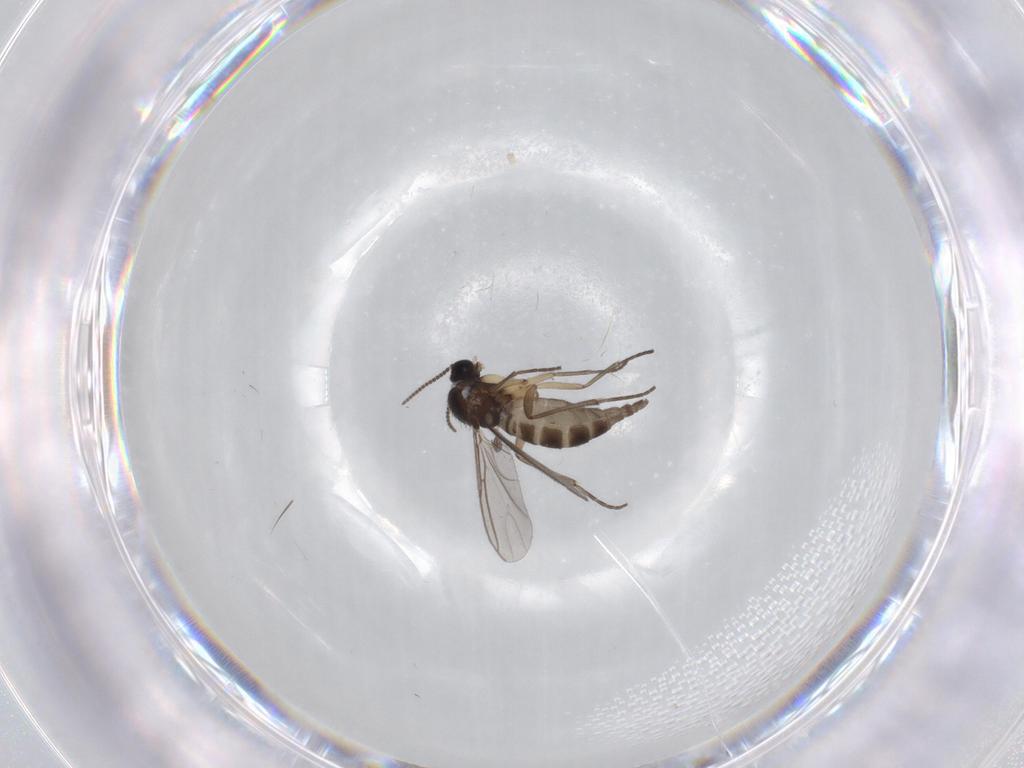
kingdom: Animalia
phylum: Arthropoda
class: Insecta
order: Diptera
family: Sciaridae
